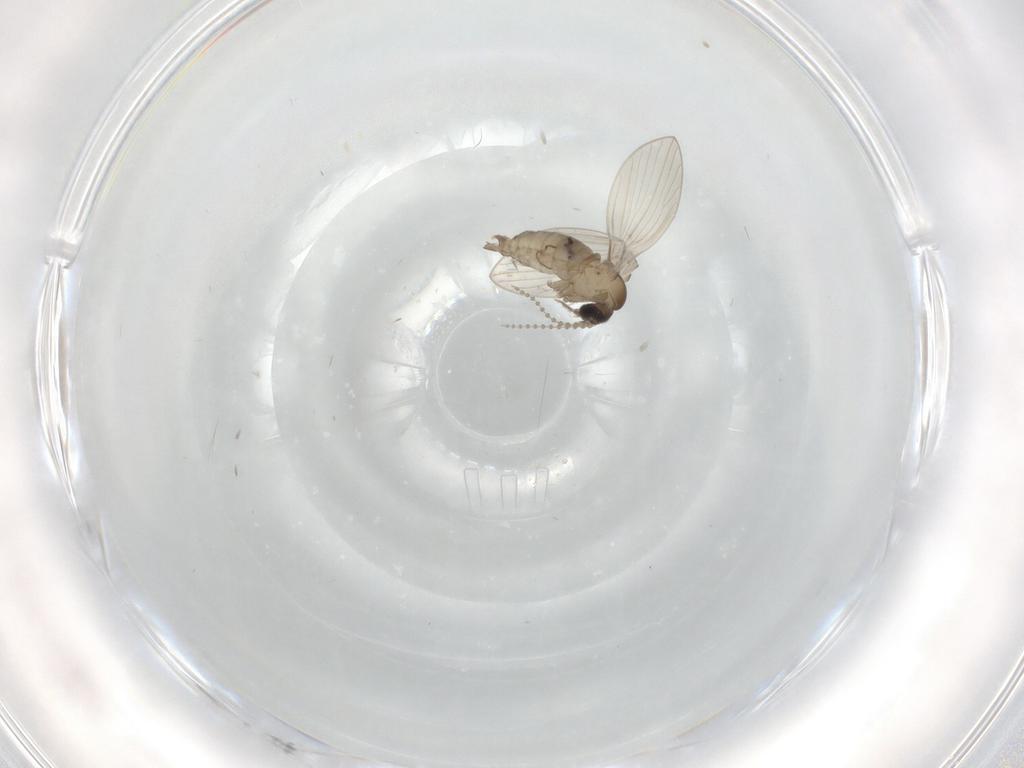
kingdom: Animalia
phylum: Arthropoda
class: Insecta
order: Diptera
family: Psychodidae
